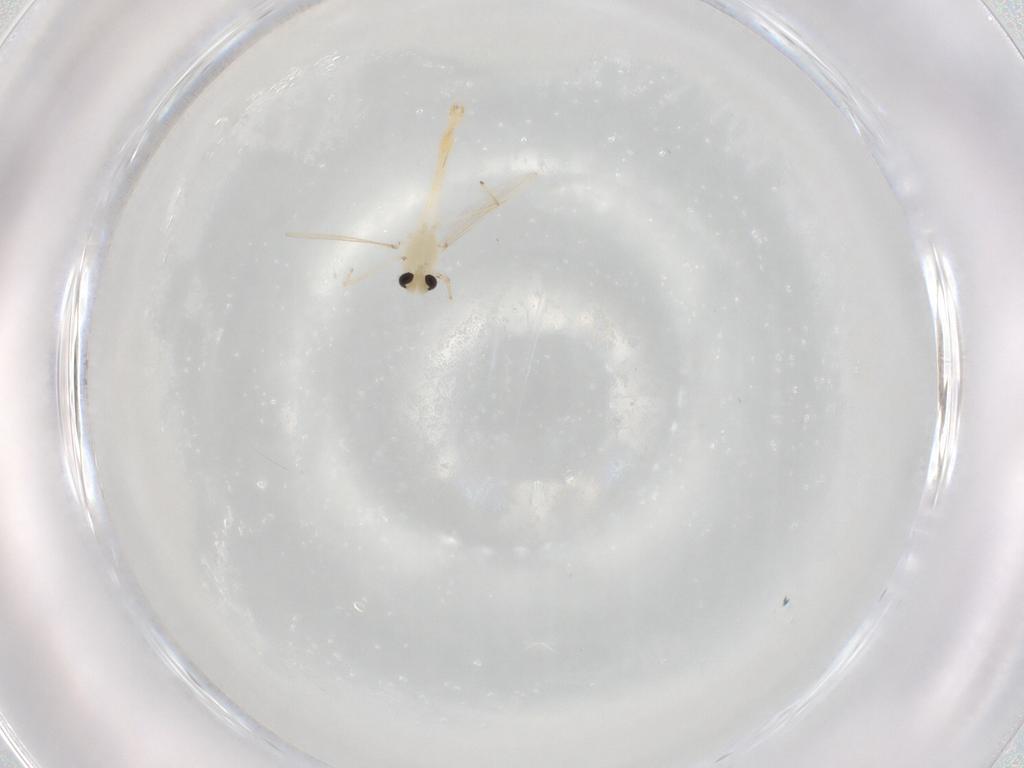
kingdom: Animalia
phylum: Arthropoda
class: Insecta
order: Diptera
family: Chironomidae
